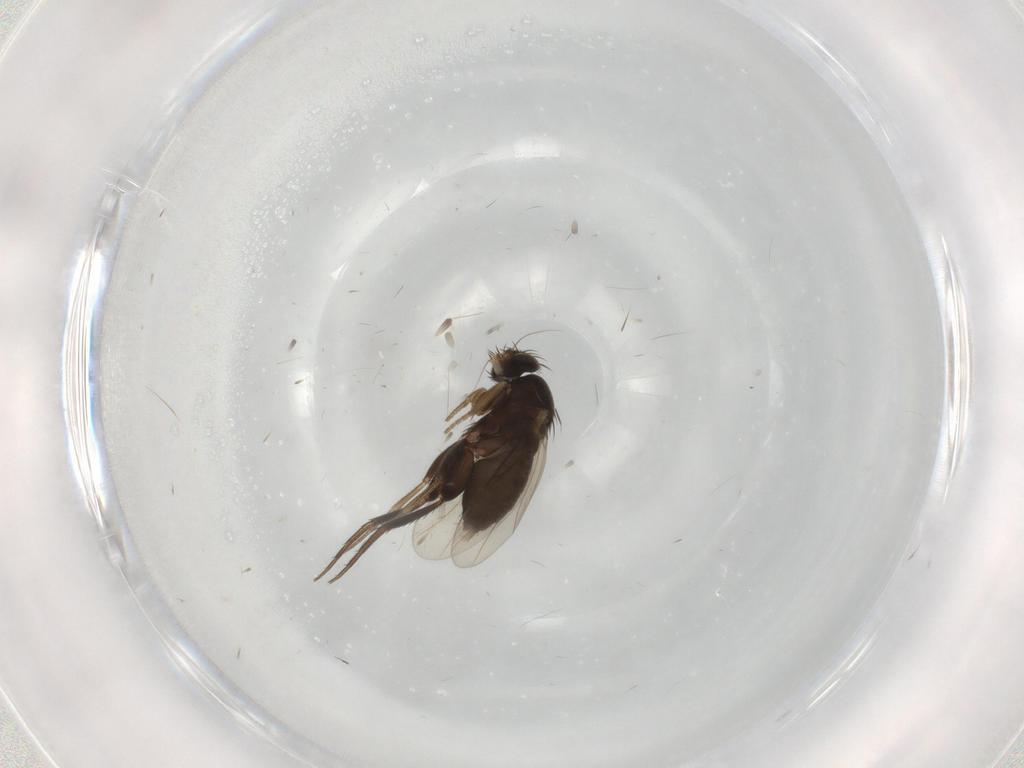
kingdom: Animalia
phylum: Arthropoda
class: Insecta
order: Diptera
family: Phoridae
